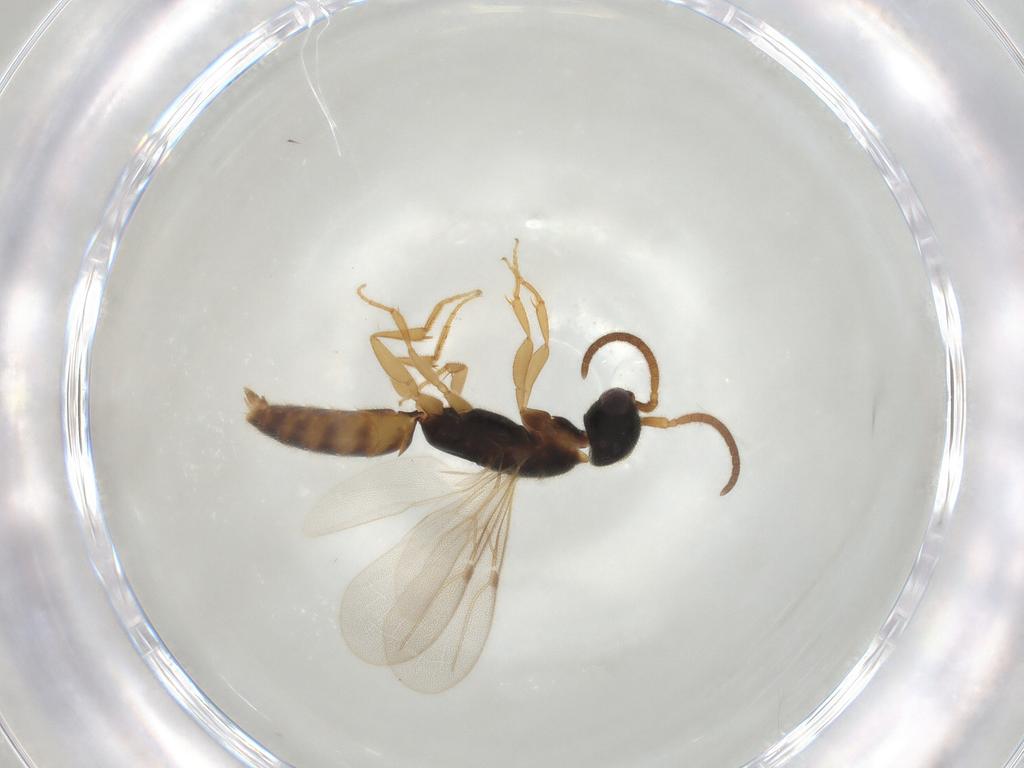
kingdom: Animalia
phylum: Arthropoda
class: Insecta
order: Hymenoptera
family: Bethylidae
